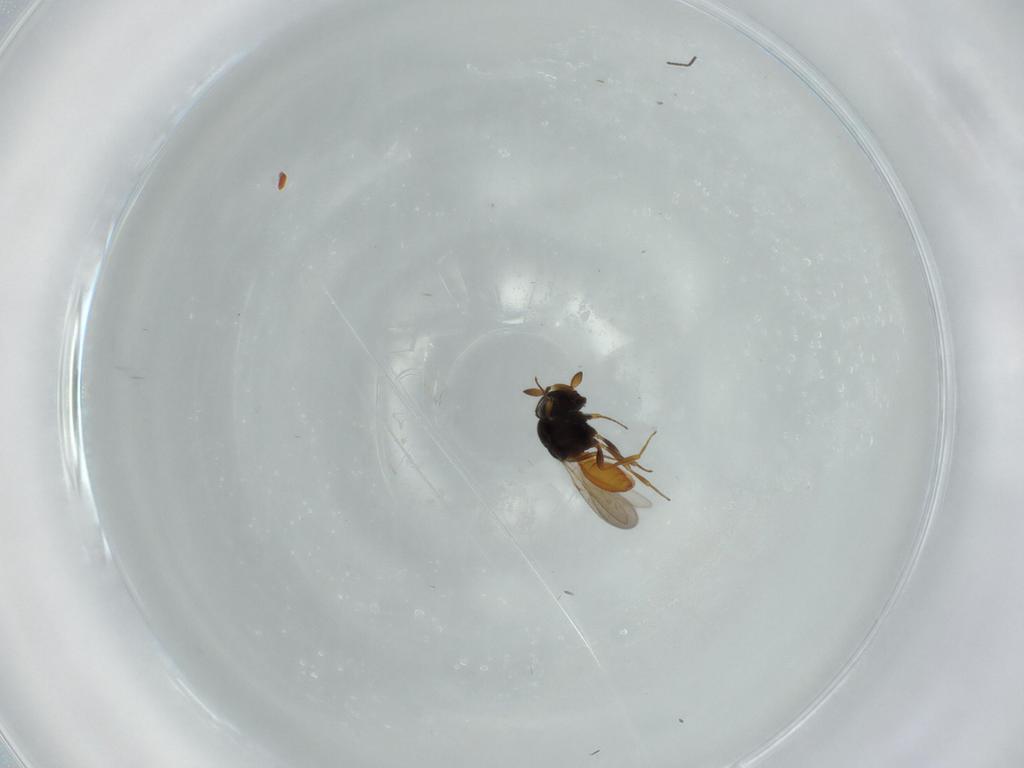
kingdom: Animalia
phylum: Arthropoda
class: Insecta
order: Hymenoptera
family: Scelionidae
